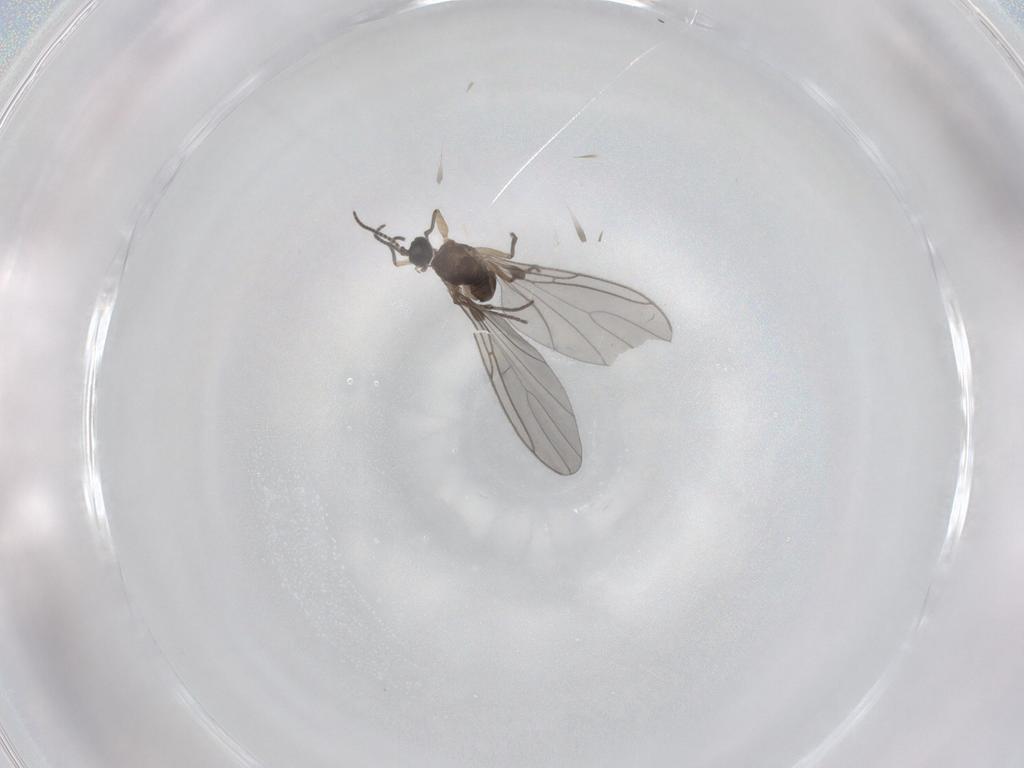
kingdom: Animalia
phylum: Arthropoda
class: Insecta
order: Diptera
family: Sciaridae
